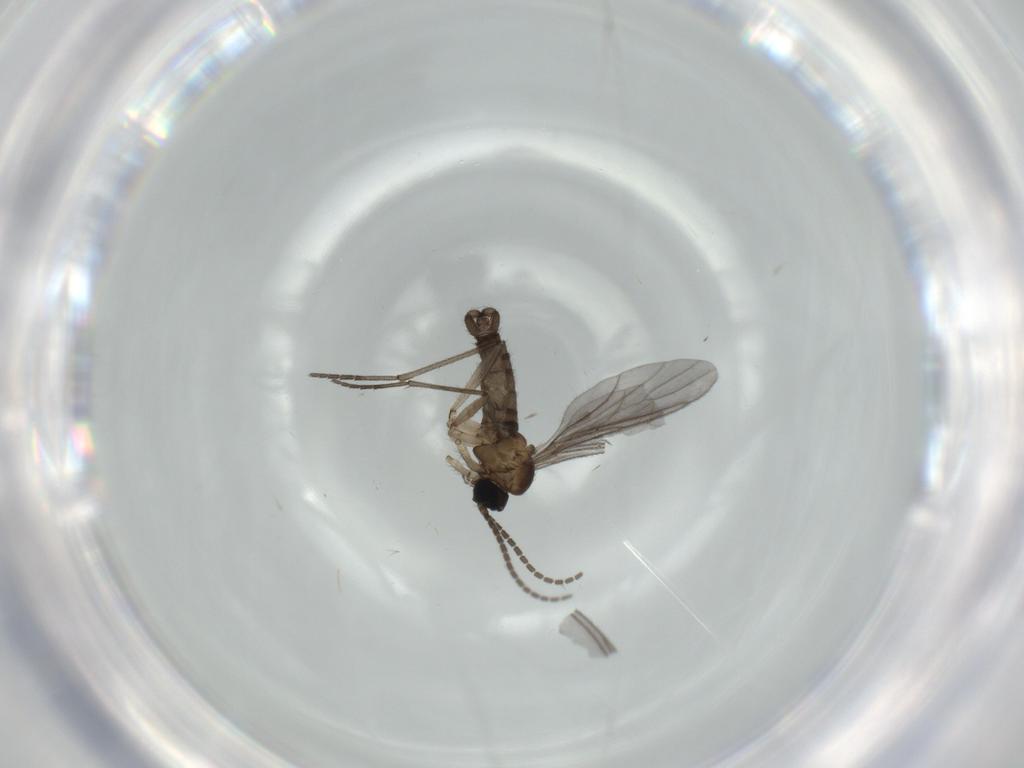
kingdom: Animalia
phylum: Arthropoda
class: Insecta
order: Diptera
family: Sciaridae
